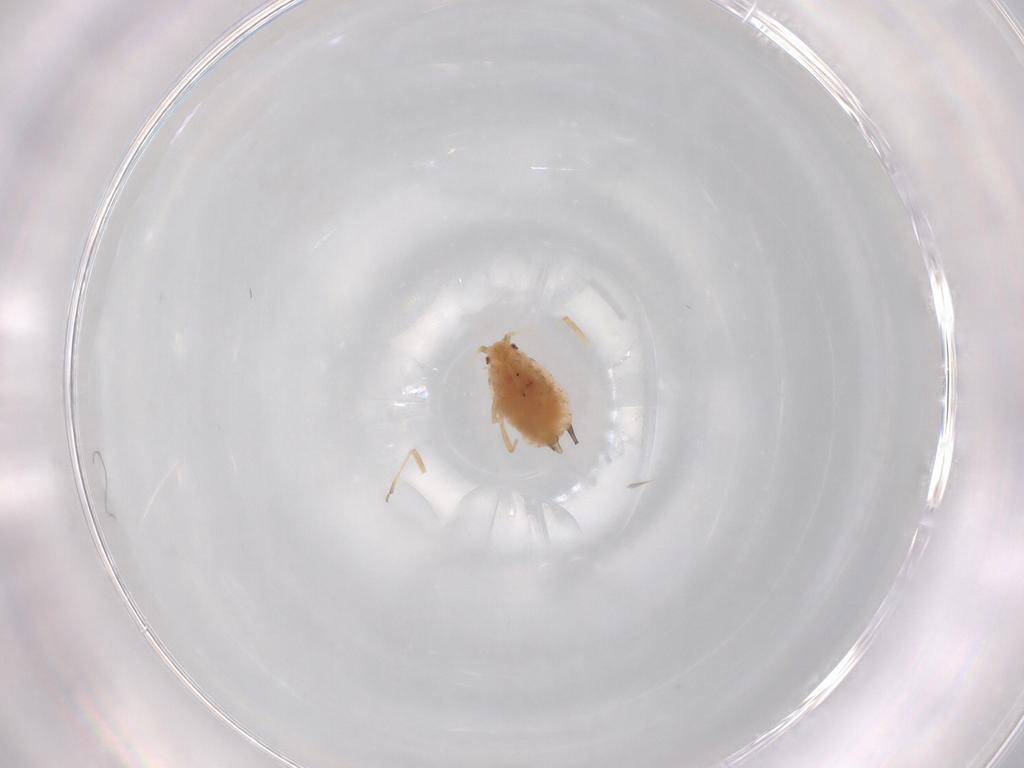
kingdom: Animalia
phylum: Arthropoda
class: Insecta
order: Hemiptera
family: Aphididae
